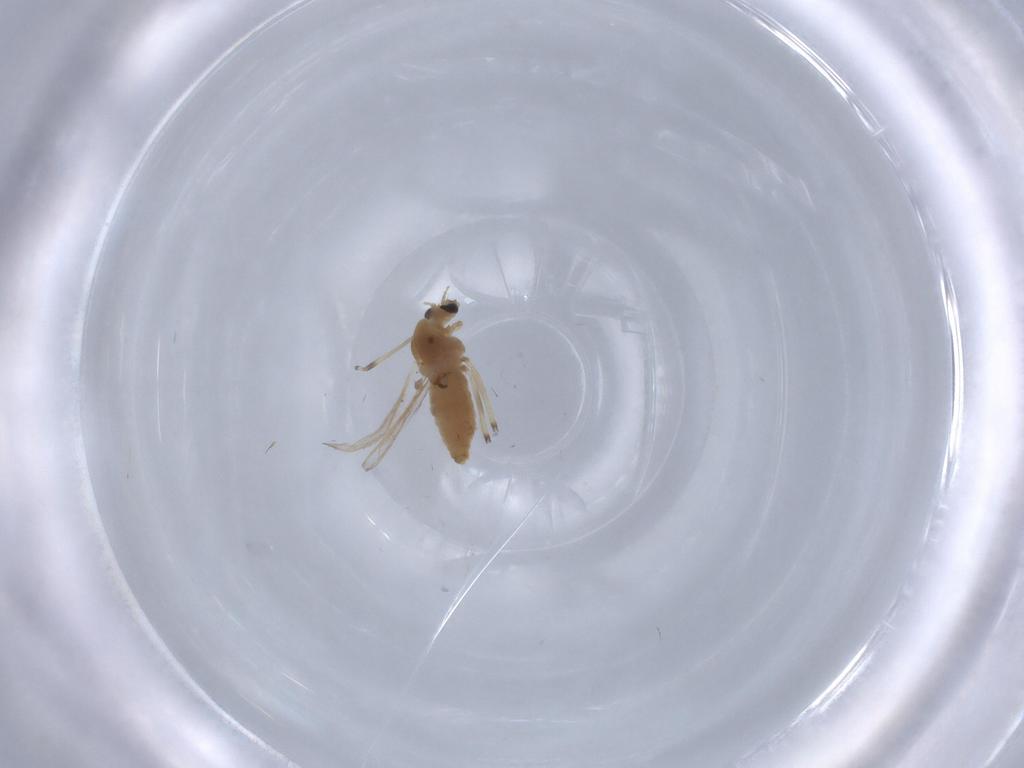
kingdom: Animalia
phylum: Arthropoda
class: Insecta
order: Diptera
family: Chironomidae
